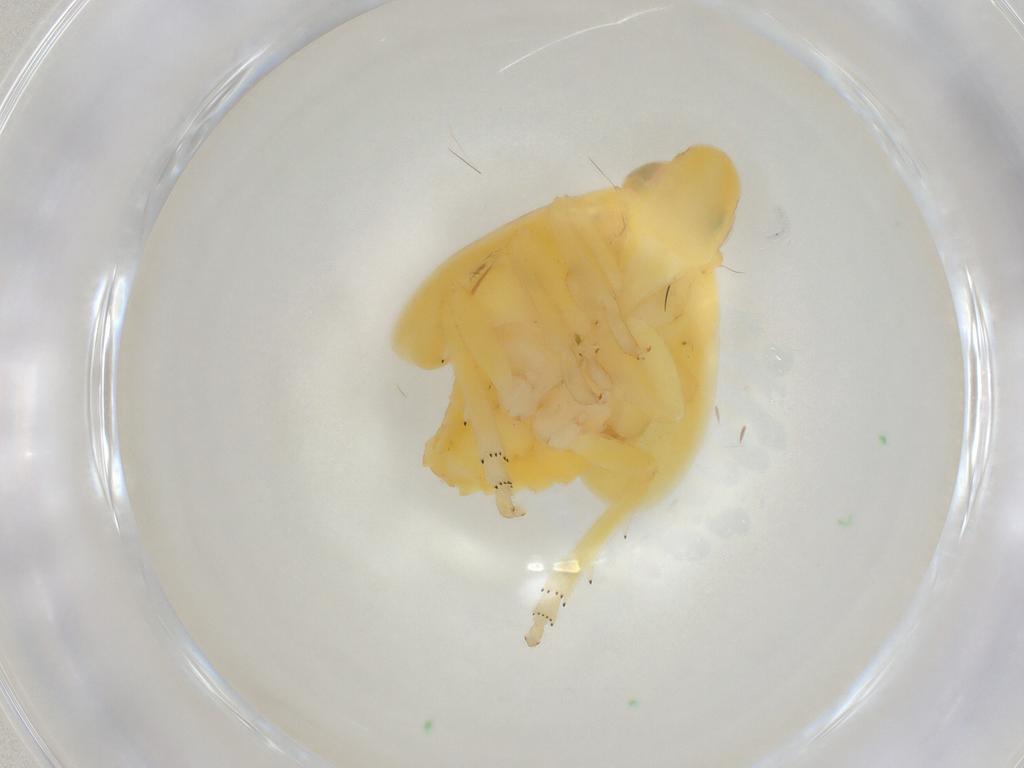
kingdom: Animalia
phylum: Arthropoda
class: Insecta
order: Hemiptera
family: Tropiduchidae
